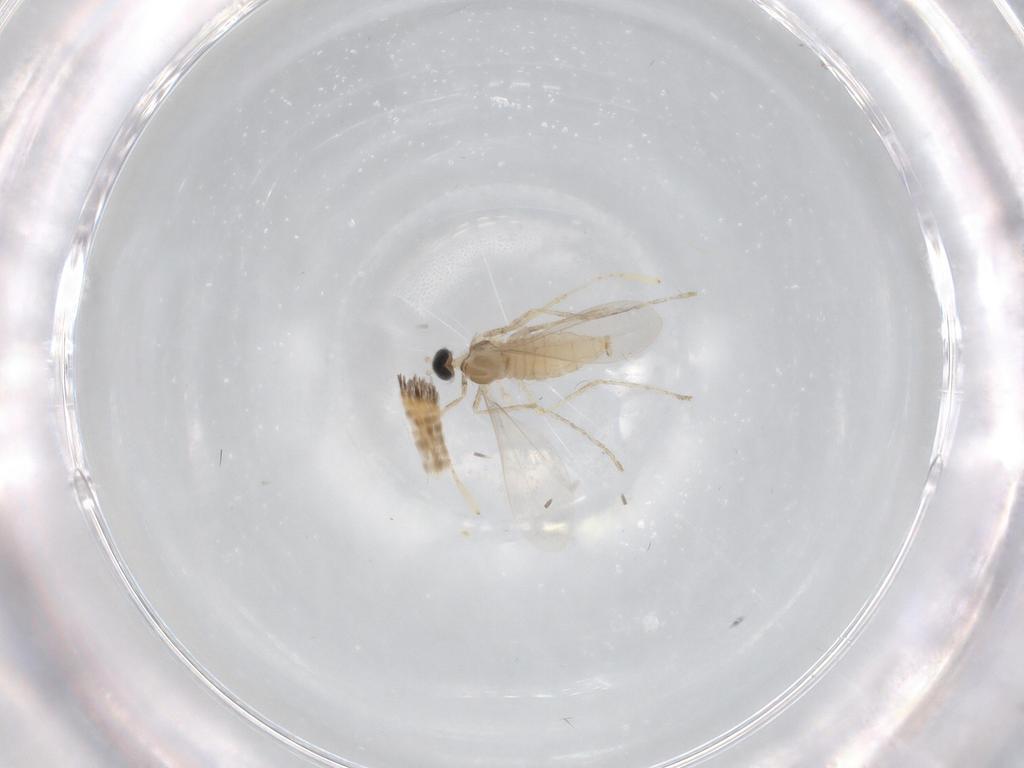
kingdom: Animalia
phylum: Arthropoda
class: Insecta
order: Diptera
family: Cecidomyiidae
